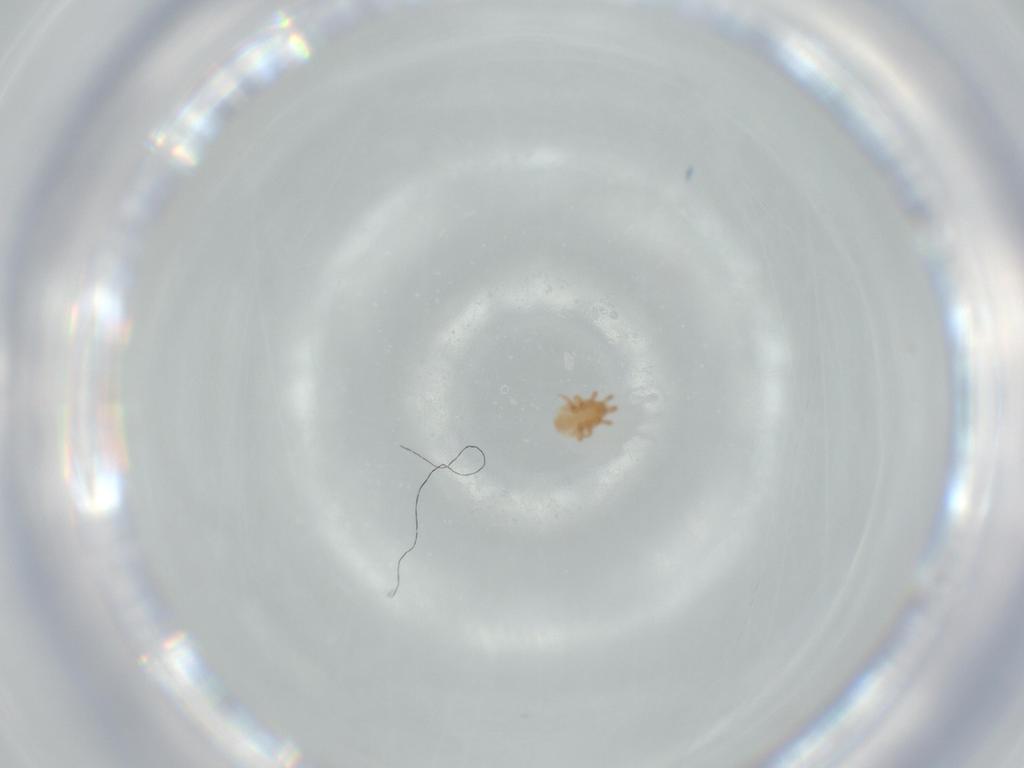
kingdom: Animalia
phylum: Arthropoda
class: Arachnida
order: Mesostigmata
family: Dinychidae
